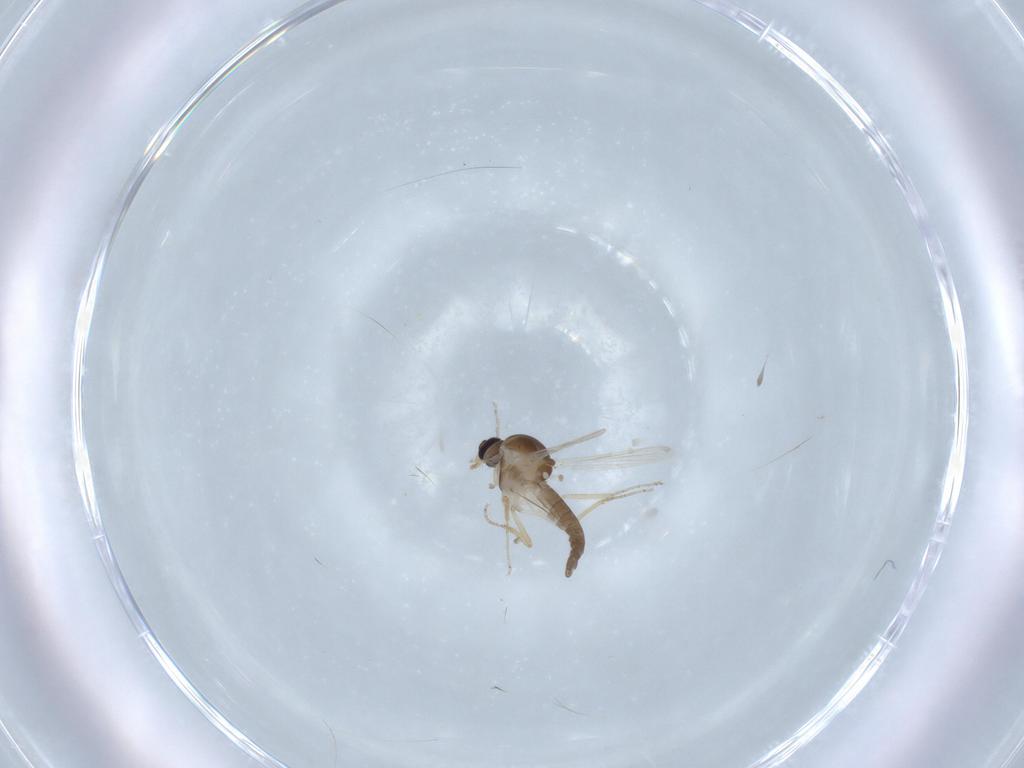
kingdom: Animalia
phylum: Arthropoda
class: Insecta
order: Diptera
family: Ceratopogonidae
